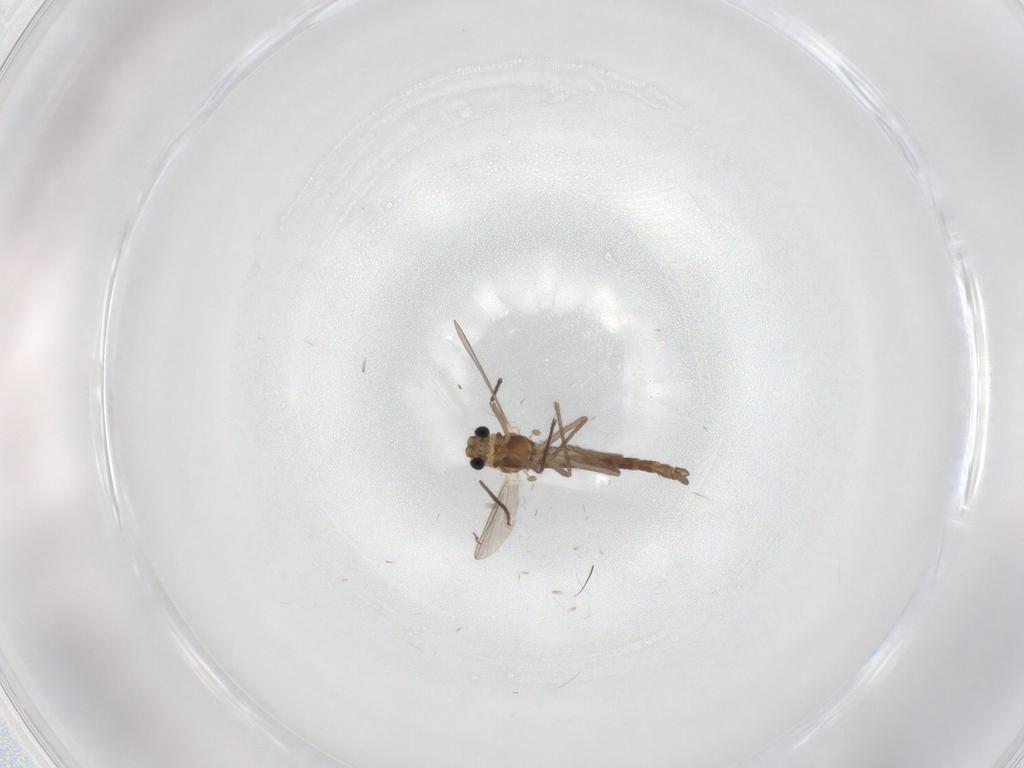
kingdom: Animalia
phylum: Arthropoda
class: Insecta
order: Diptera
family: Chironomidae
